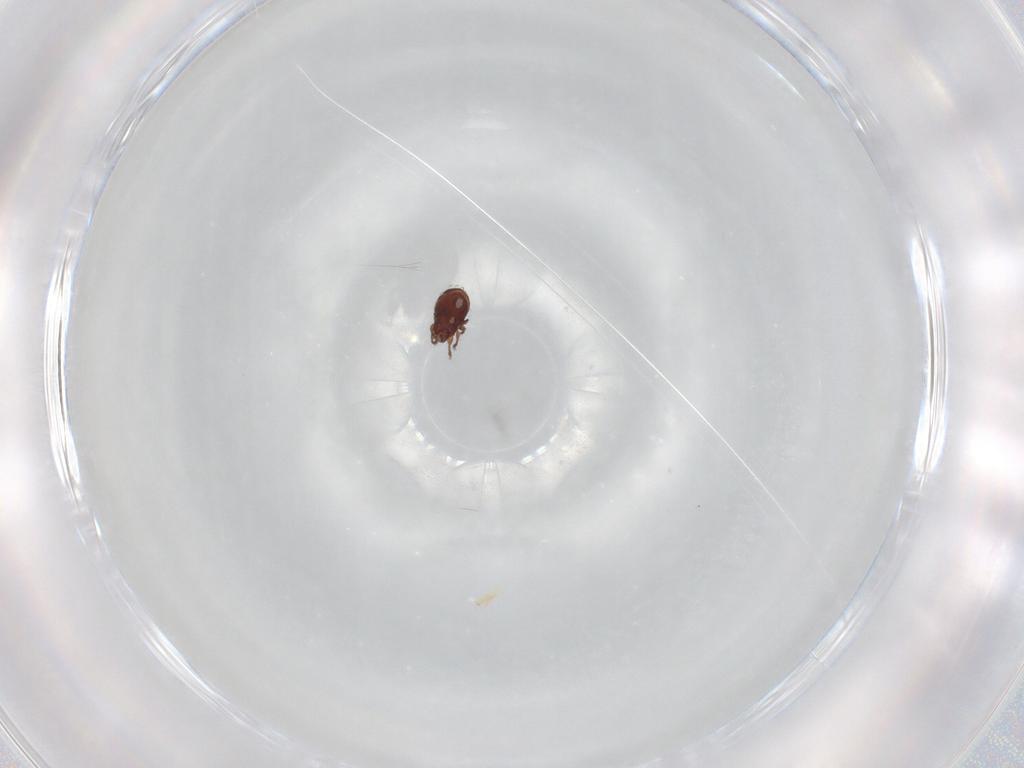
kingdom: Animalia
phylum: Arthropoda
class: Arachnida
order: Sarcoptiformes
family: Scheloribatidae
